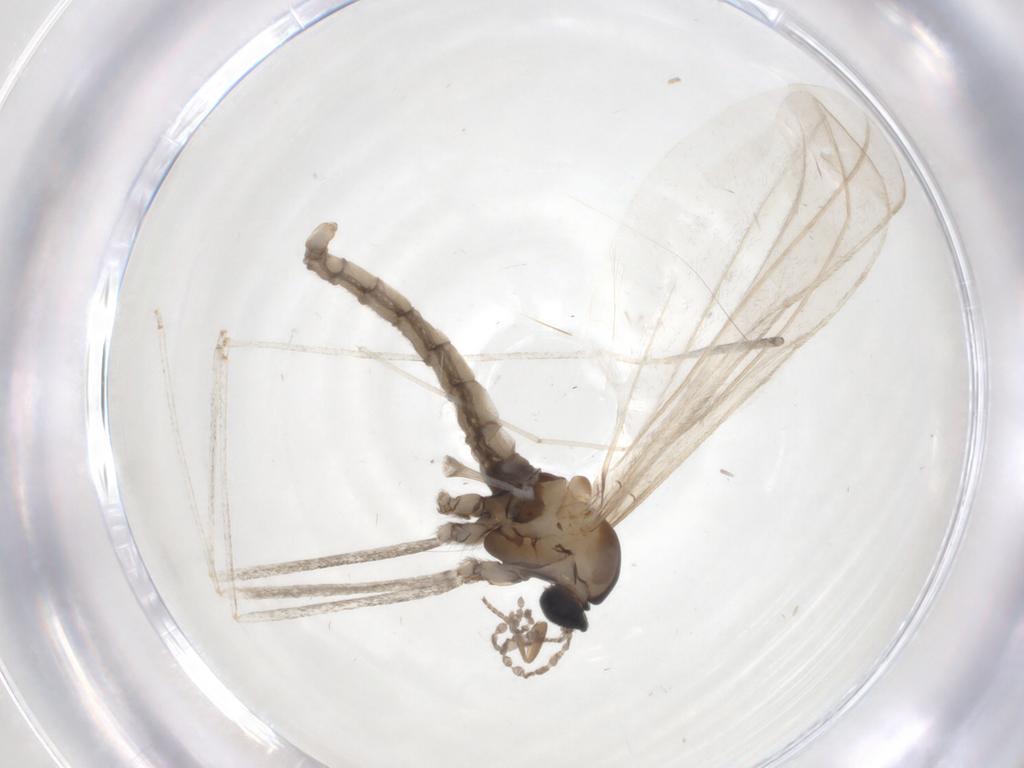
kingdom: Animalia
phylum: Arthropoda
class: Insecta
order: Diptera
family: Cecidomyiidae
